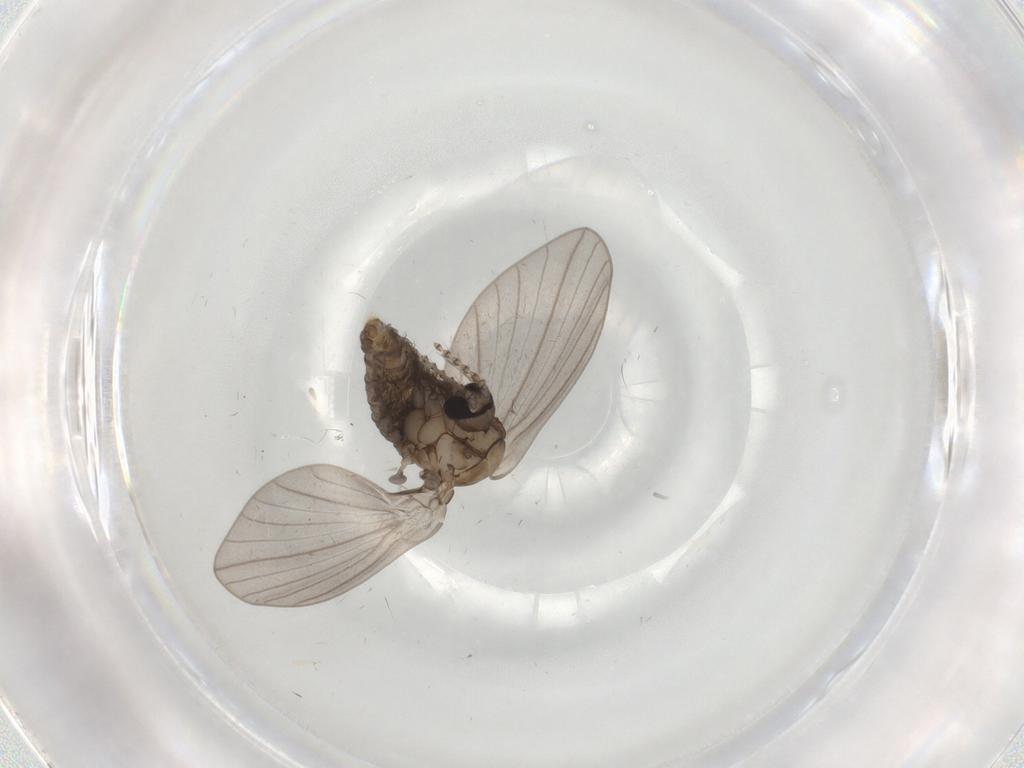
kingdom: Animalia
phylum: Arthropoda
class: Insecta
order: Diptera
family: Psychodidae
